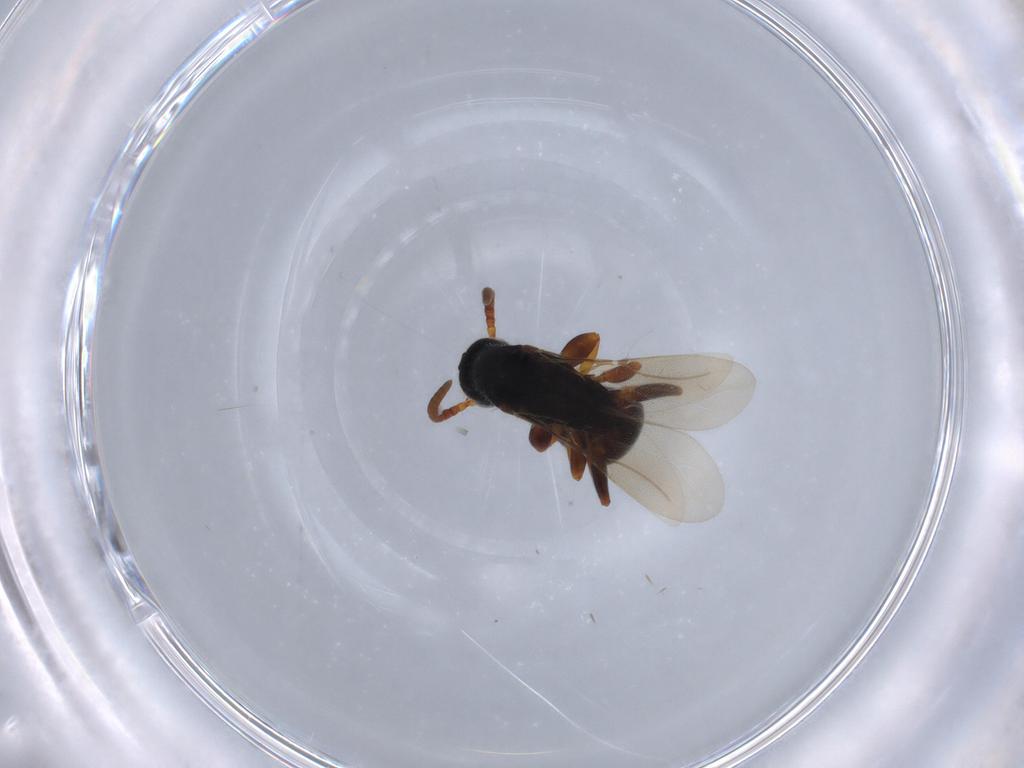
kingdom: Animalia
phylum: Arthropoda
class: Insecta
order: Hymenoptera
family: Bethylidae
